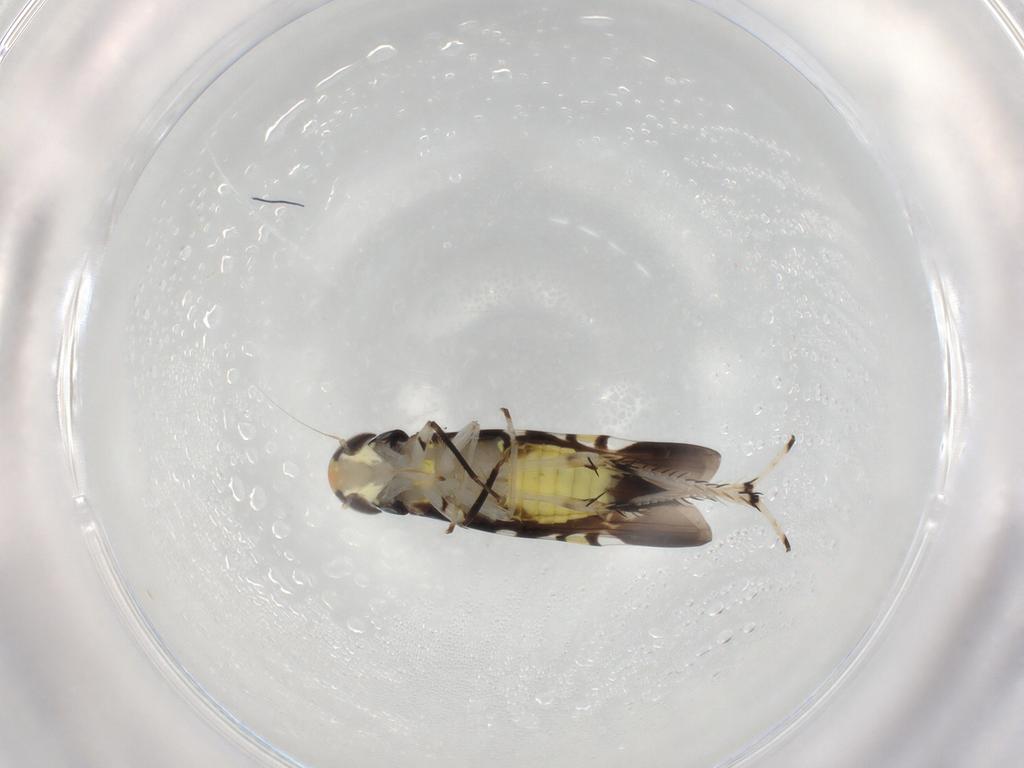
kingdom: Animalia
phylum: Arthropoda
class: Insecta
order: Hemiptera
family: Cicadellidae
